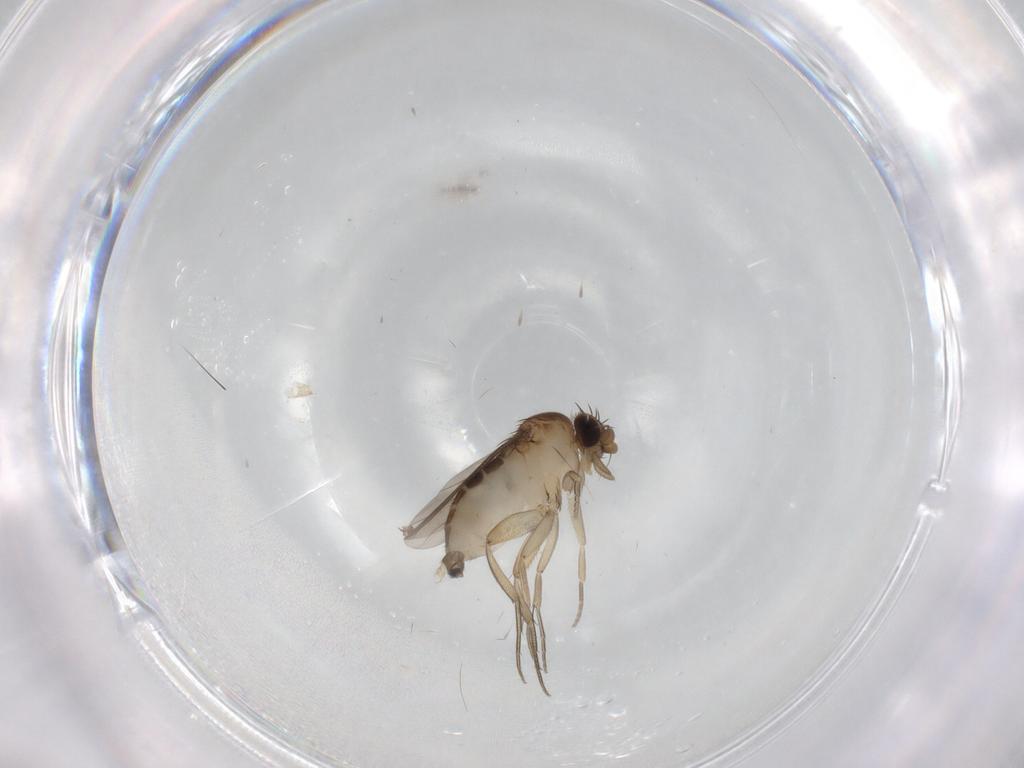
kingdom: Animalia
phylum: Arthropoda
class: Insecta
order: Diptera
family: Phoridae
